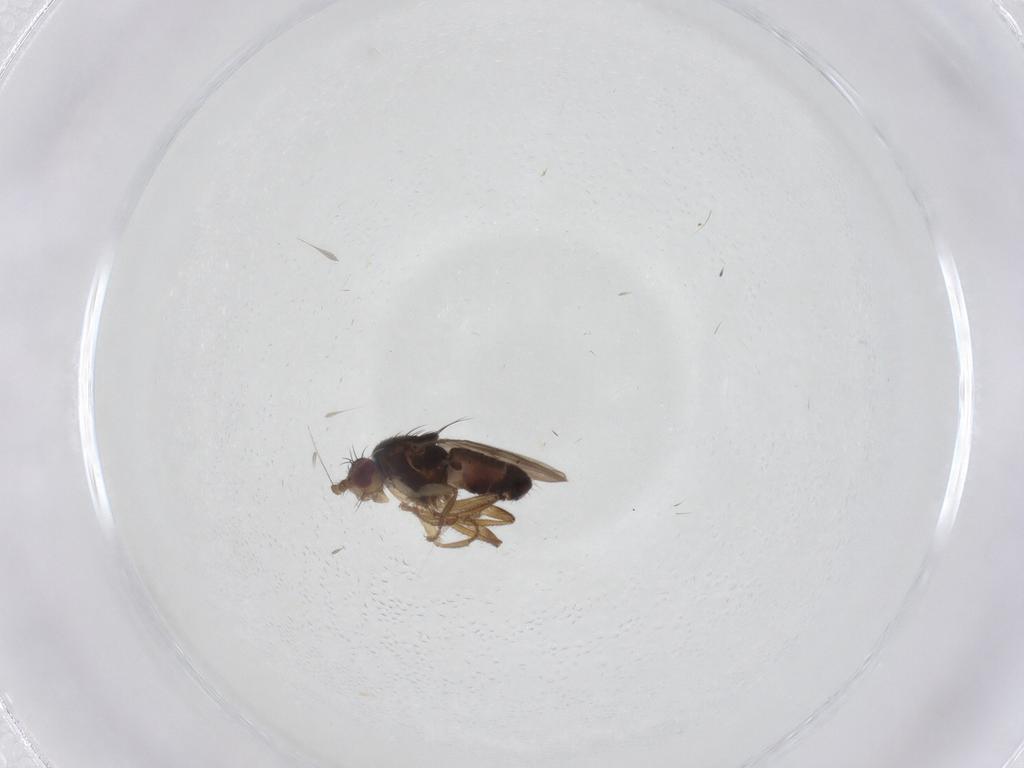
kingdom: Animalia
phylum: Arthropoda
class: Insecta
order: Diptera
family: Sphaeroceridae
